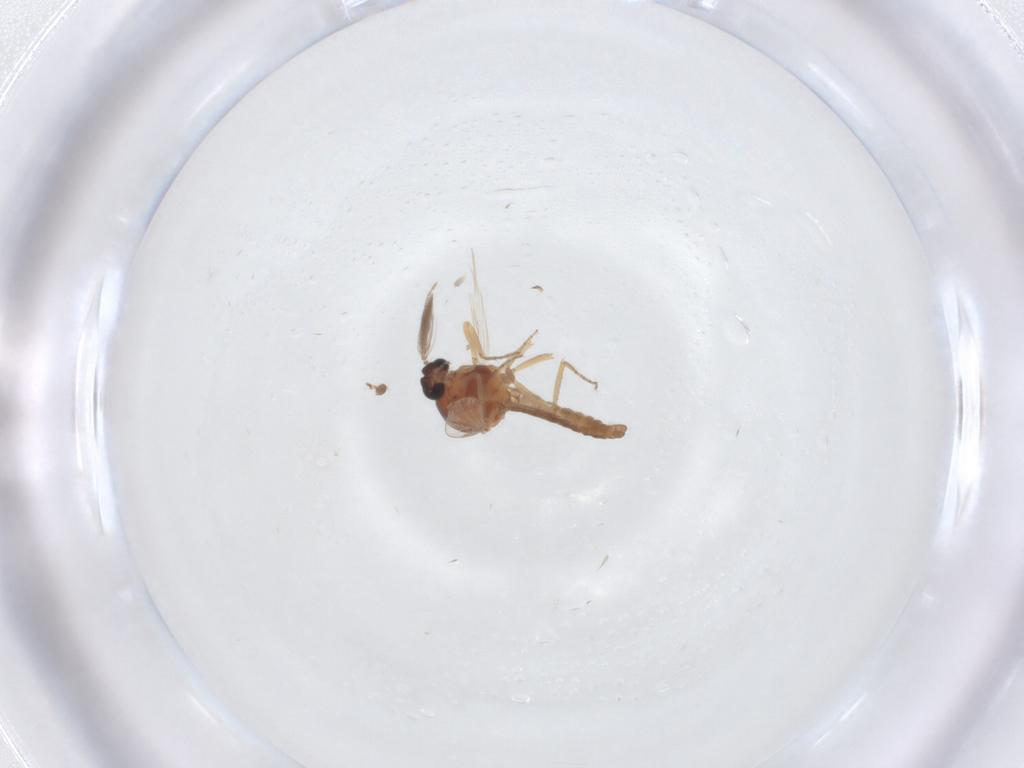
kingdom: Animalia
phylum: Arthropoda
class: Insecta
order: Diptera
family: Ceratopogonidae
